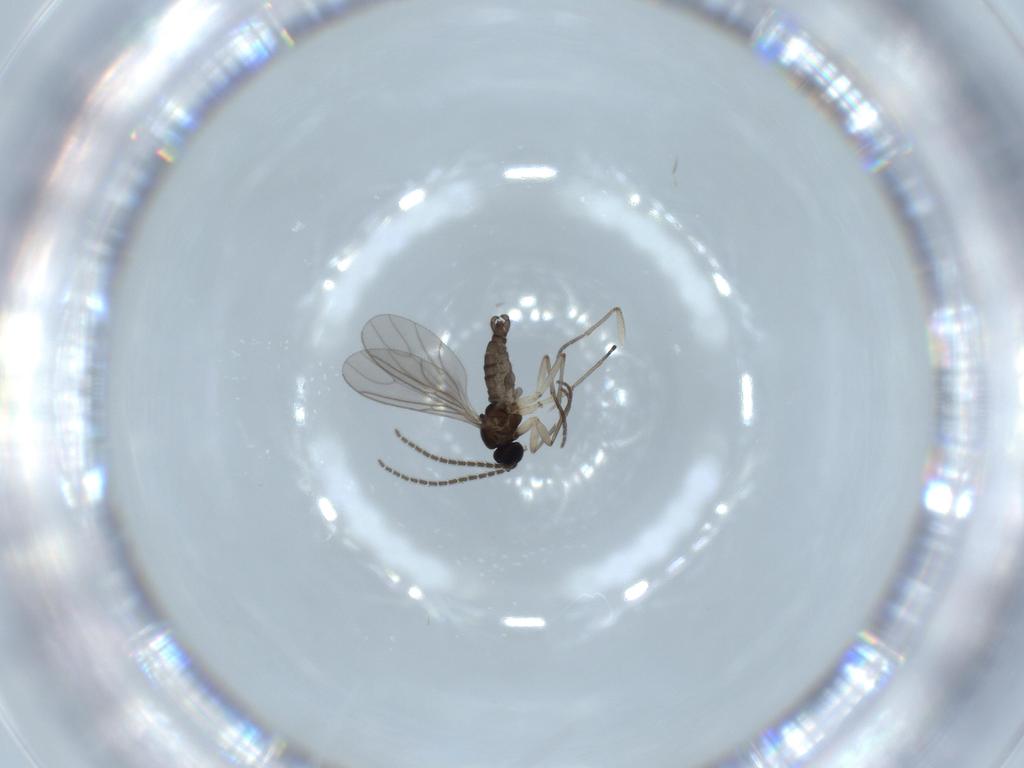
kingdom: Animalia
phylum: Arthropoda
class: Insecta
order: Diptera
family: Sciaridae
